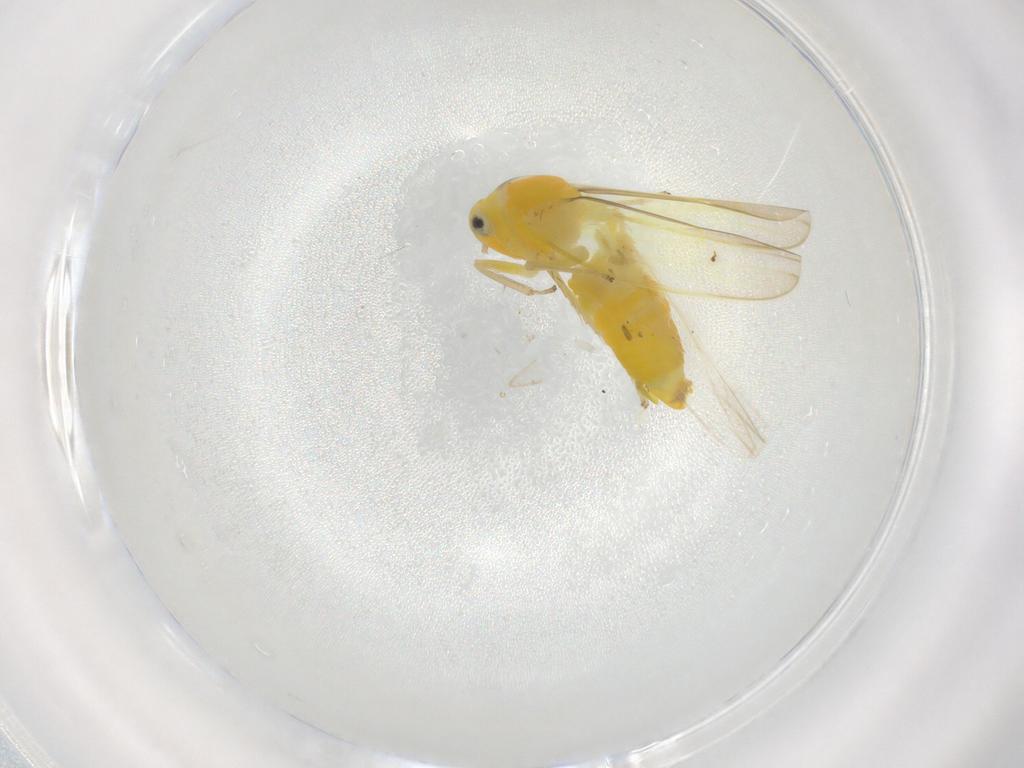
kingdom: Animalia
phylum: Arthropoda
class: Insecta
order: Hemiptera
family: Cicadellidae
